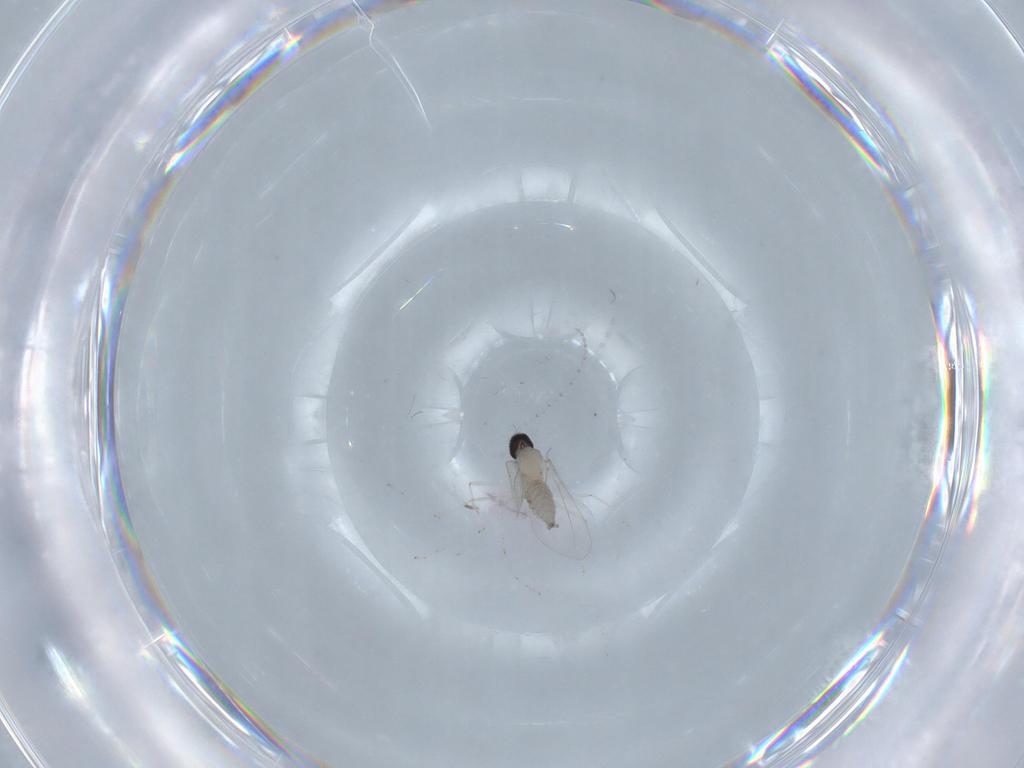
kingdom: Animalia
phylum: Arthropoda
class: Insecta
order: Diptera
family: Cecidomyiidae
